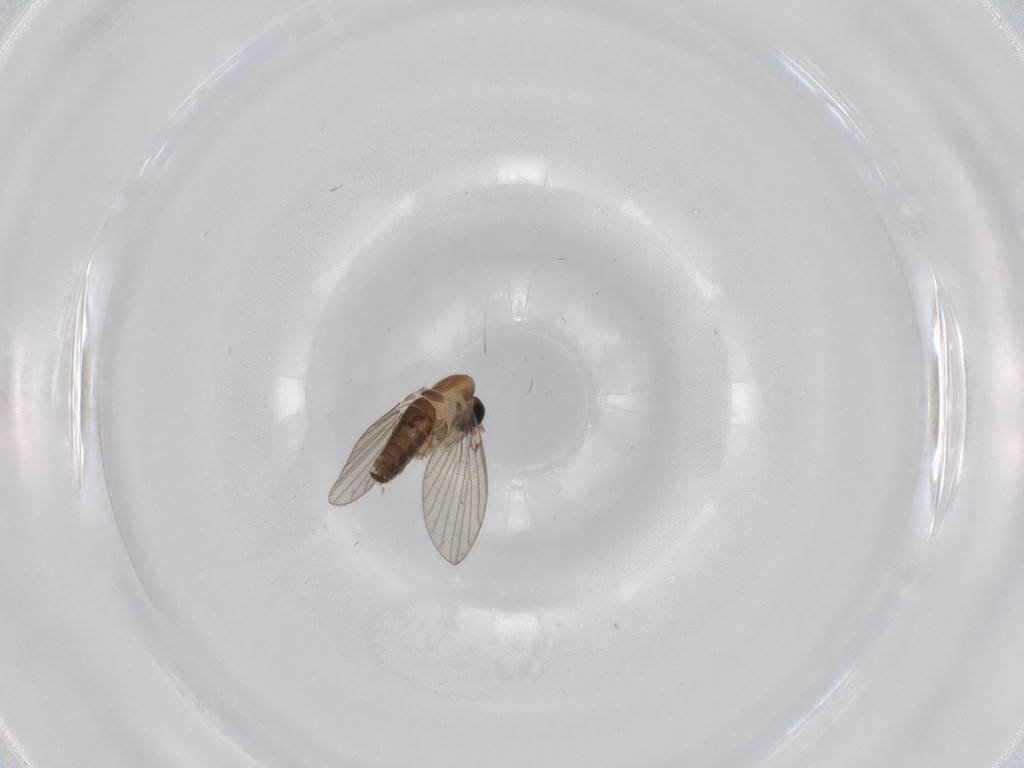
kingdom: Animalia
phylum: Arthropoda
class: Insecta
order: Diptera
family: Psychodidae
